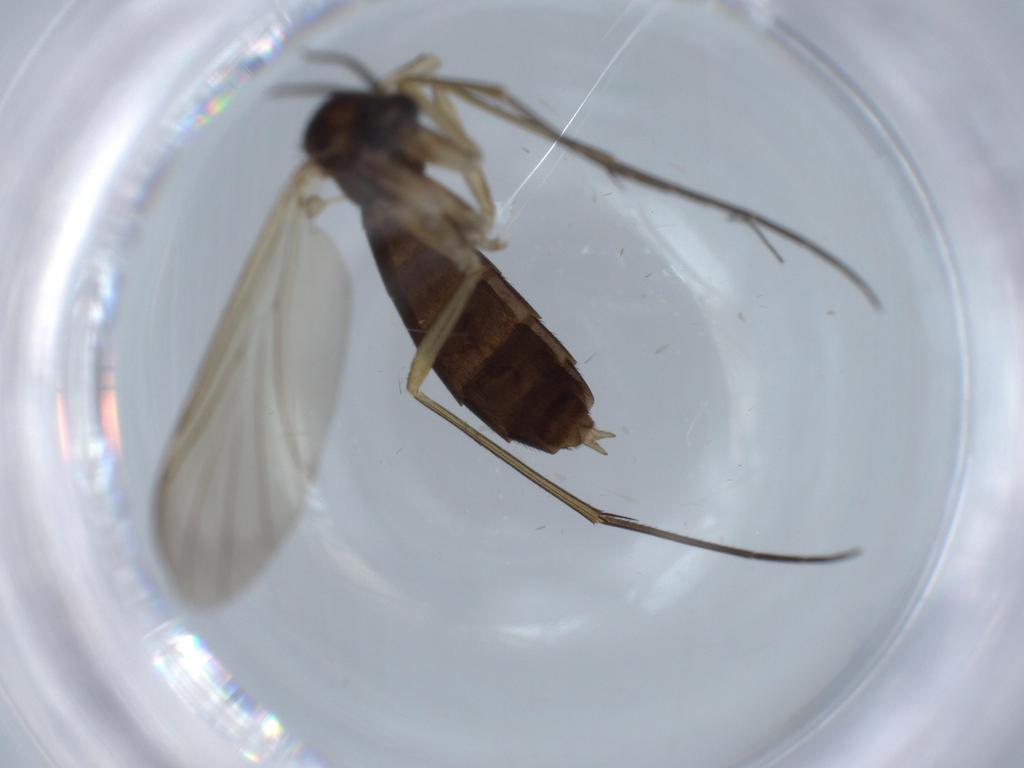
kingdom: Animalia
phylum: Arthropoda
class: Insecta
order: Diptera
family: Keroplatidae
